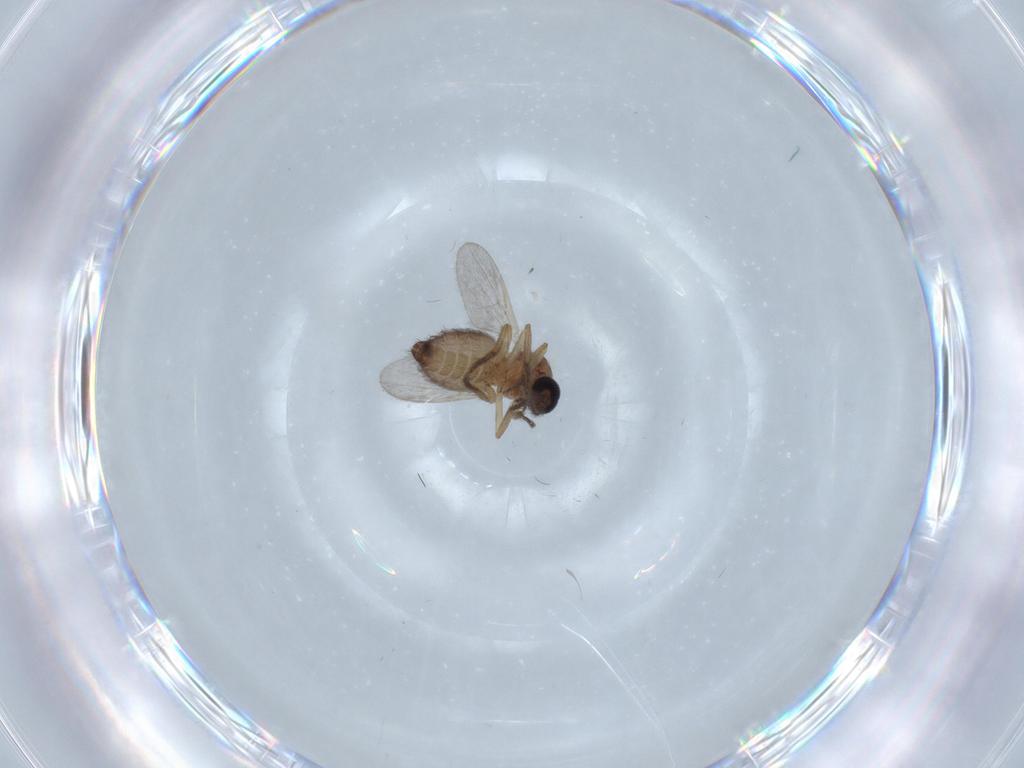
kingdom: Animalia
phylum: Arthropoda
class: Insecta
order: Diptera
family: Ceratopogonidae
